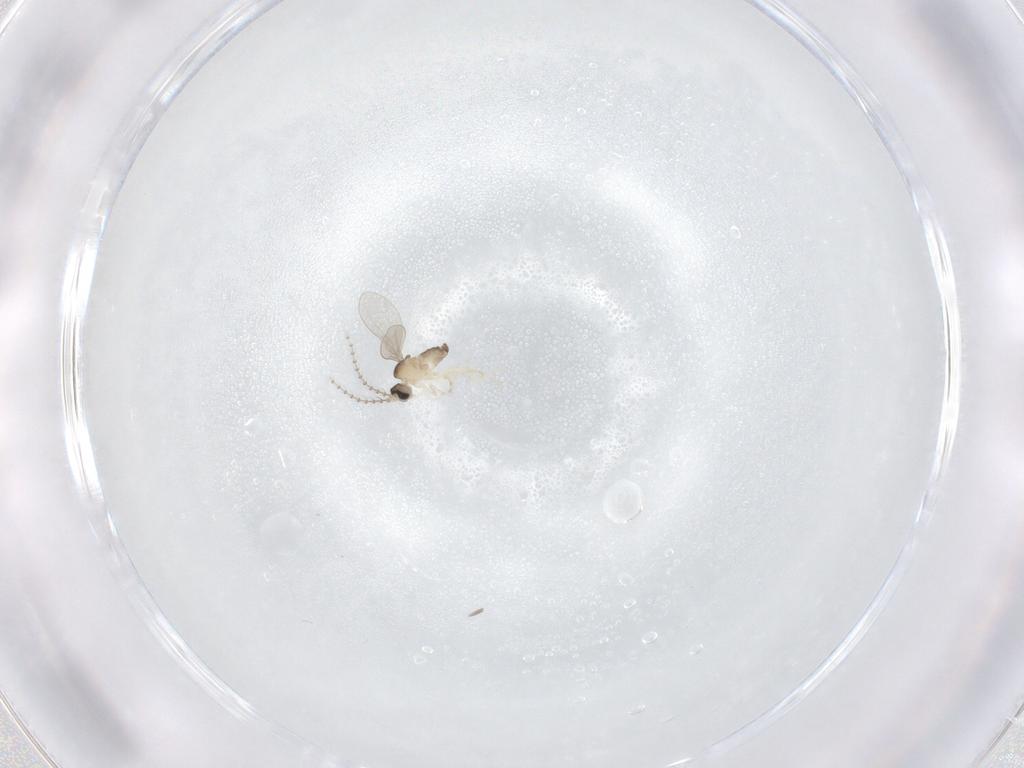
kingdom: Animalia
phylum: Arthropoda
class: Insecta
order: Diptera
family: Cecidomyiidae
